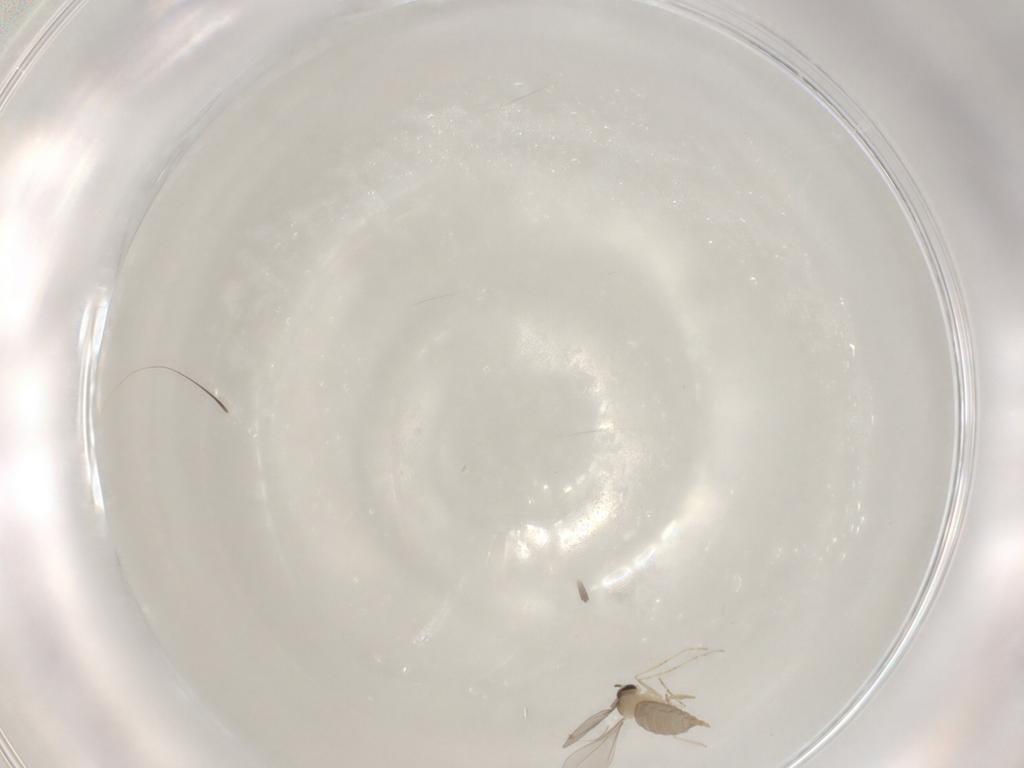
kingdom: Animalia
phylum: Arthropoda
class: Insecta
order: Diptera
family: Cecidomyiidae
